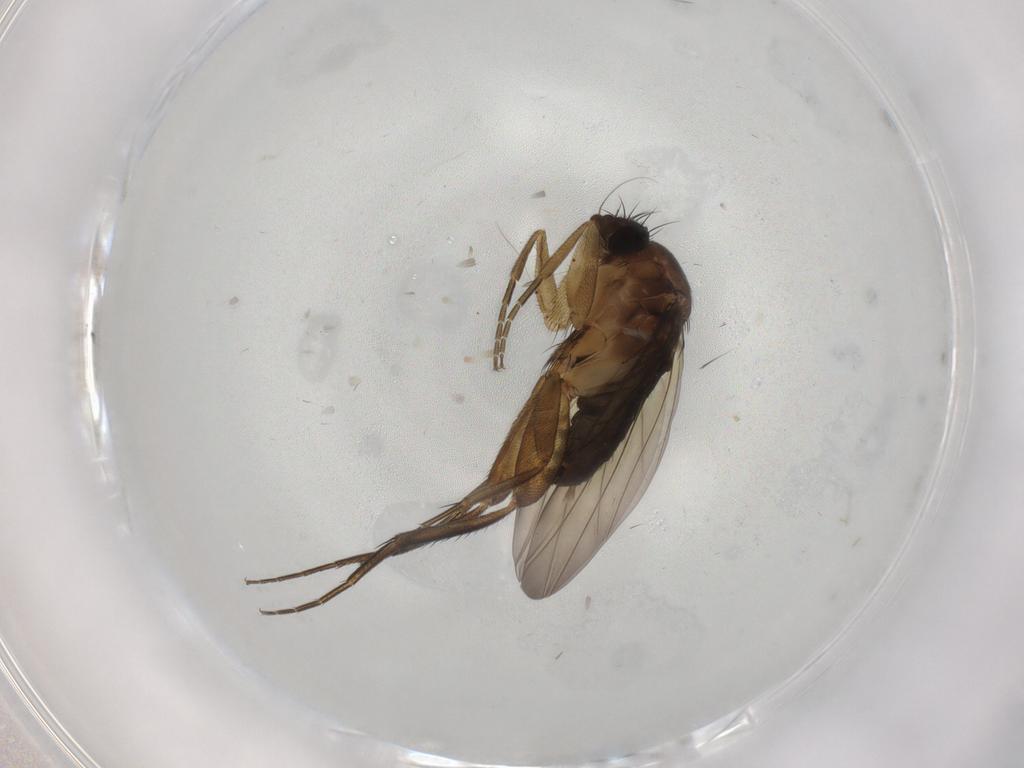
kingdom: Animalia
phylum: Arthropoda
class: Insecta
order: Diptera
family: Phoridae
